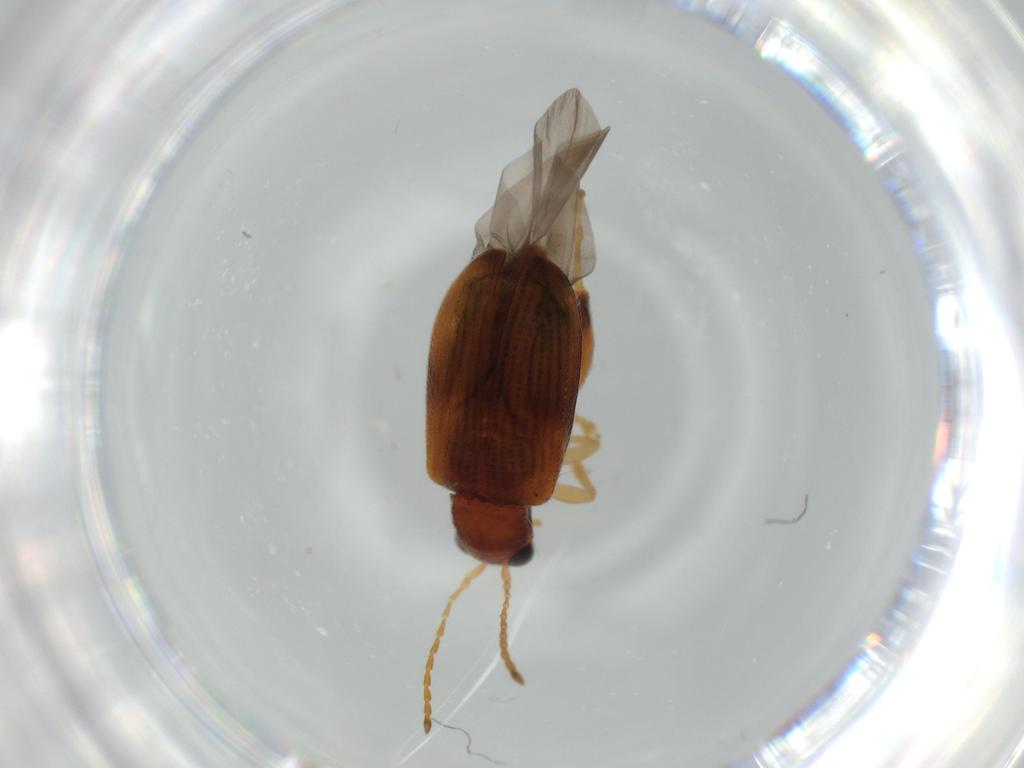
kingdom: Animalia
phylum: Arthropoda
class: Insecta
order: Coleoptera
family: Chrysomelidae
